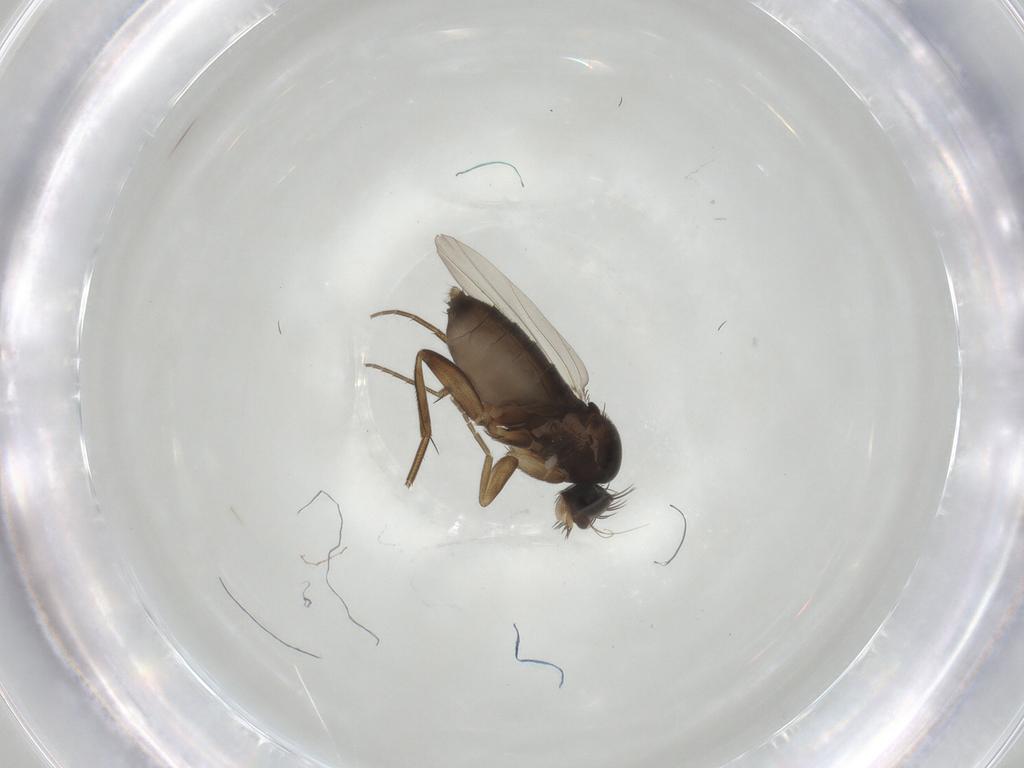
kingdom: Animalia
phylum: Arthropoda
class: Insecta
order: Diptera
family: Phoridae
